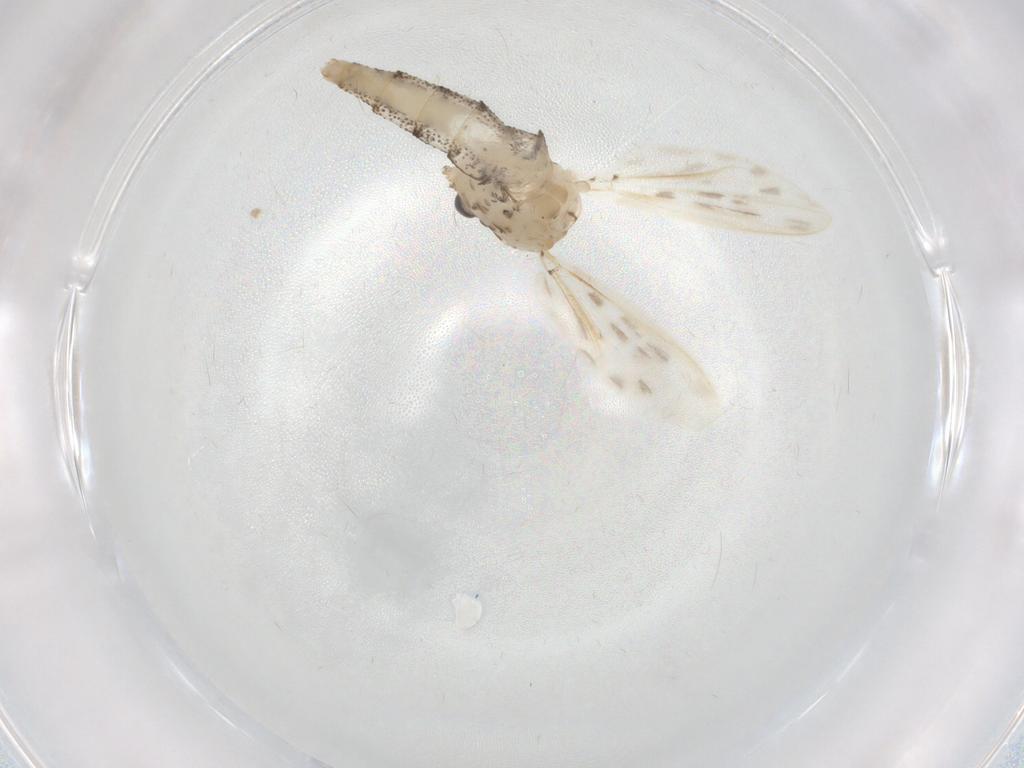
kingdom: Animalia
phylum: Arthropoda
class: Insecta
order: Diptera
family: Chaoboridae
